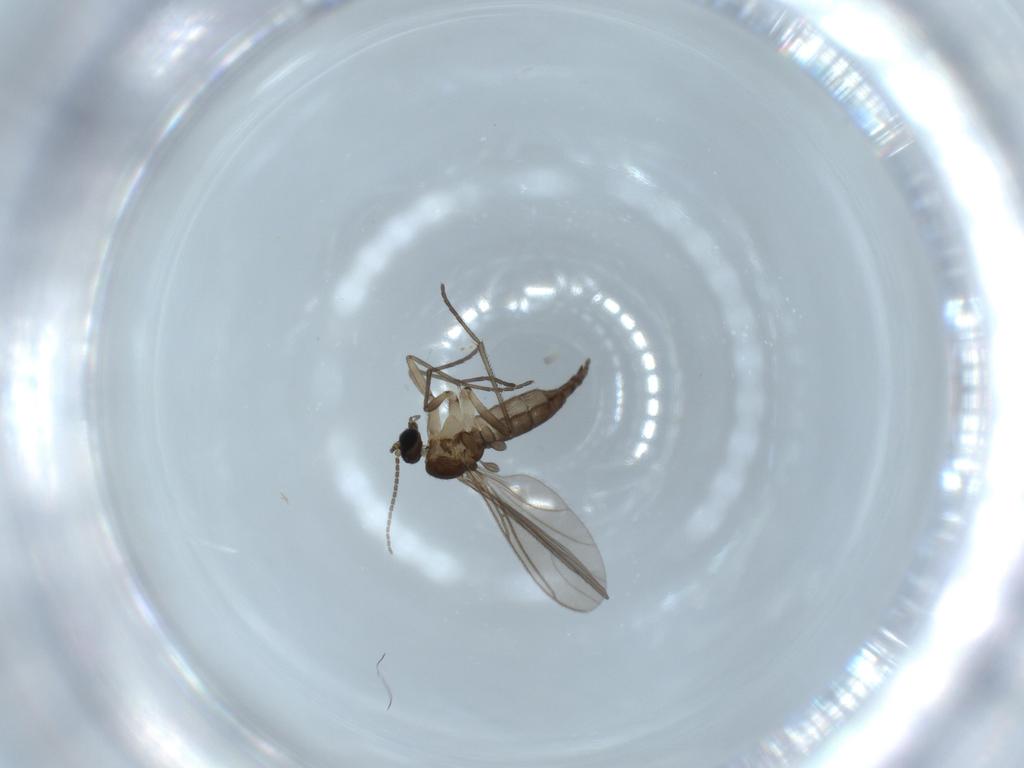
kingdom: Animalia
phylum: Arthropoda
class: Insecta
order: Diptera
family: Sciaridae
